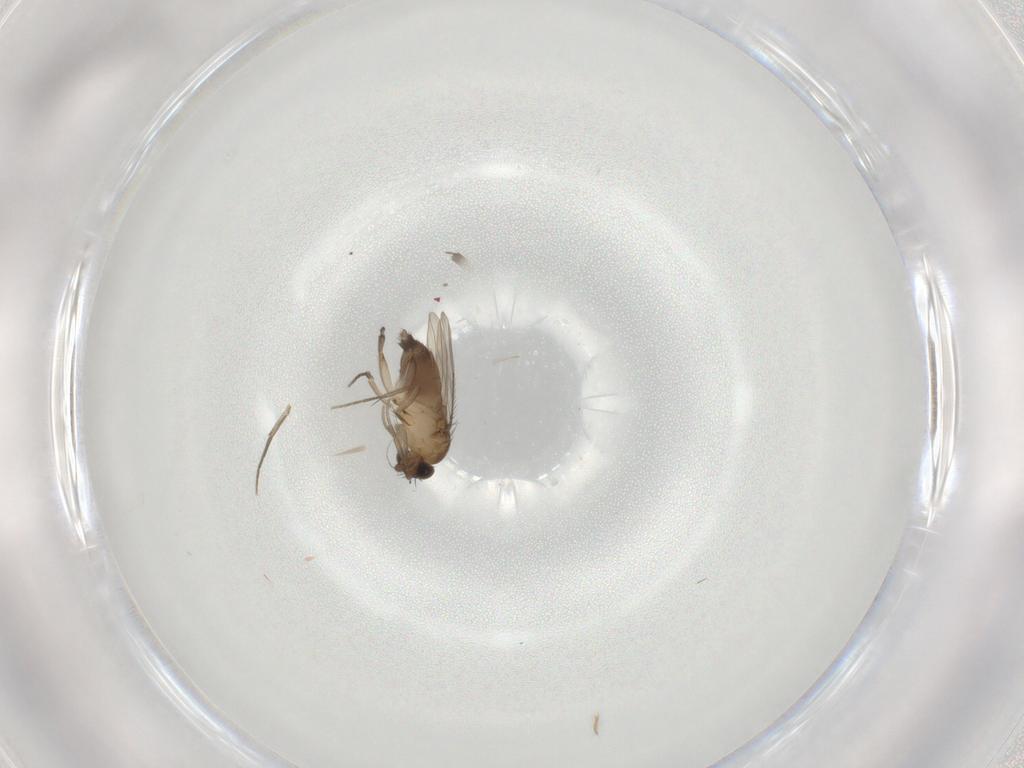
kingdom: Animalia
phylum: Arthropoda
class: Insecta
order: Diptera
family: Phoridae
